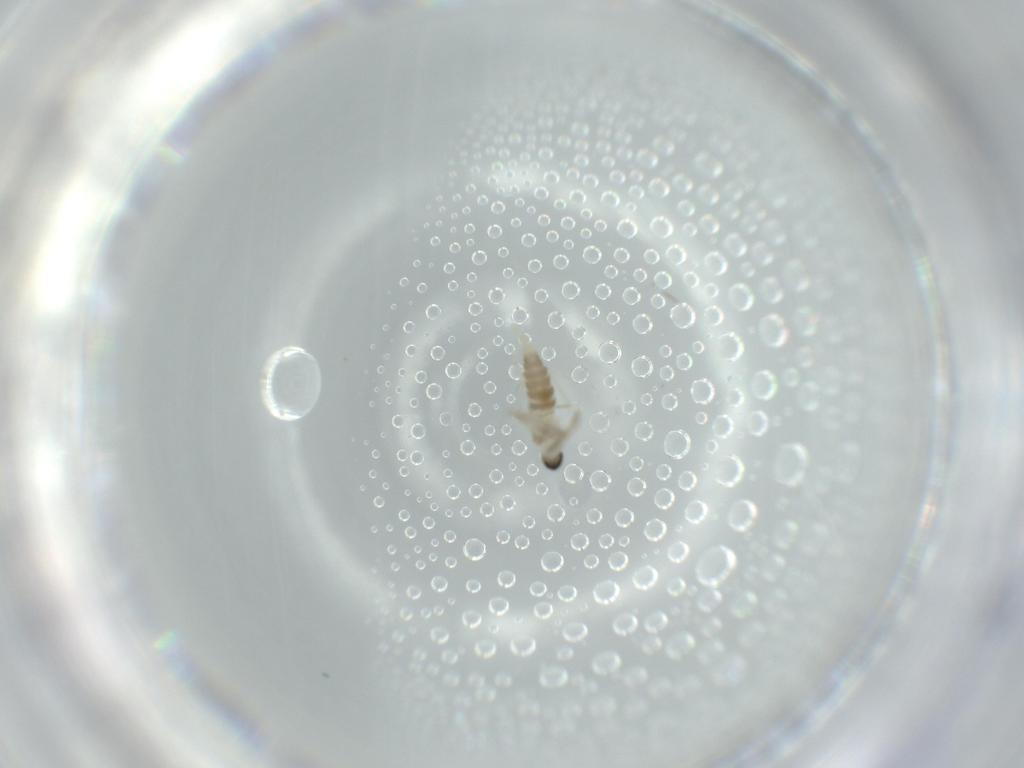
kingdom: Animalia
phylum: Arthropoda
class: Insecta
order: Diptera
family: Cecidomyiidae
